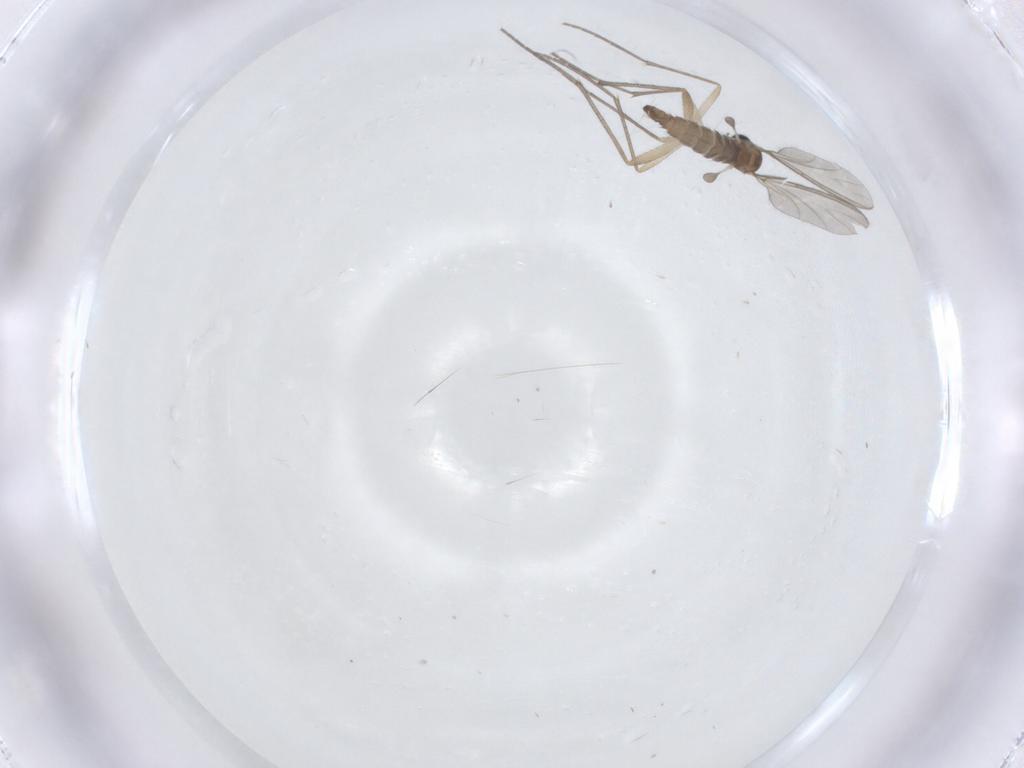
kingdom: Animalia
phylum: Arthropoda
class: Insecta
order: Diptera
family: Sciaridae
